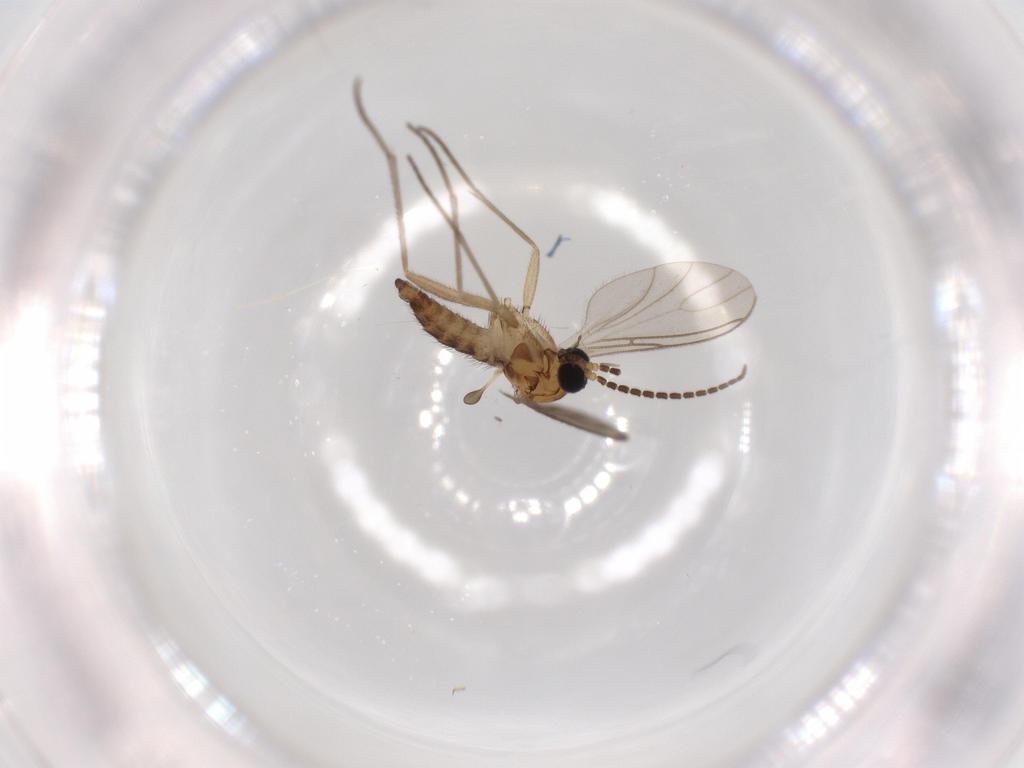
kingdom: Animalia
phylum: Arthropoda
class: Insecta
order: Diptera
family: Sciaridae
